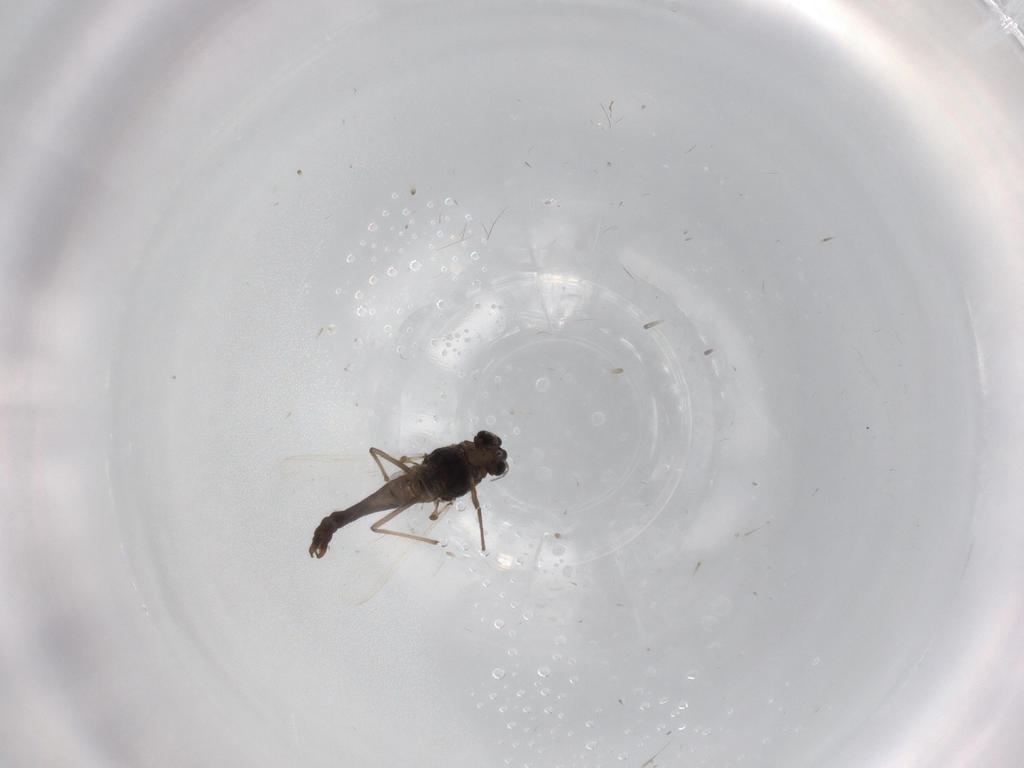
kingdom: Animalia
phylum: Arthropoda
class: Insecta
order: Diptera
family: Chironomidae
